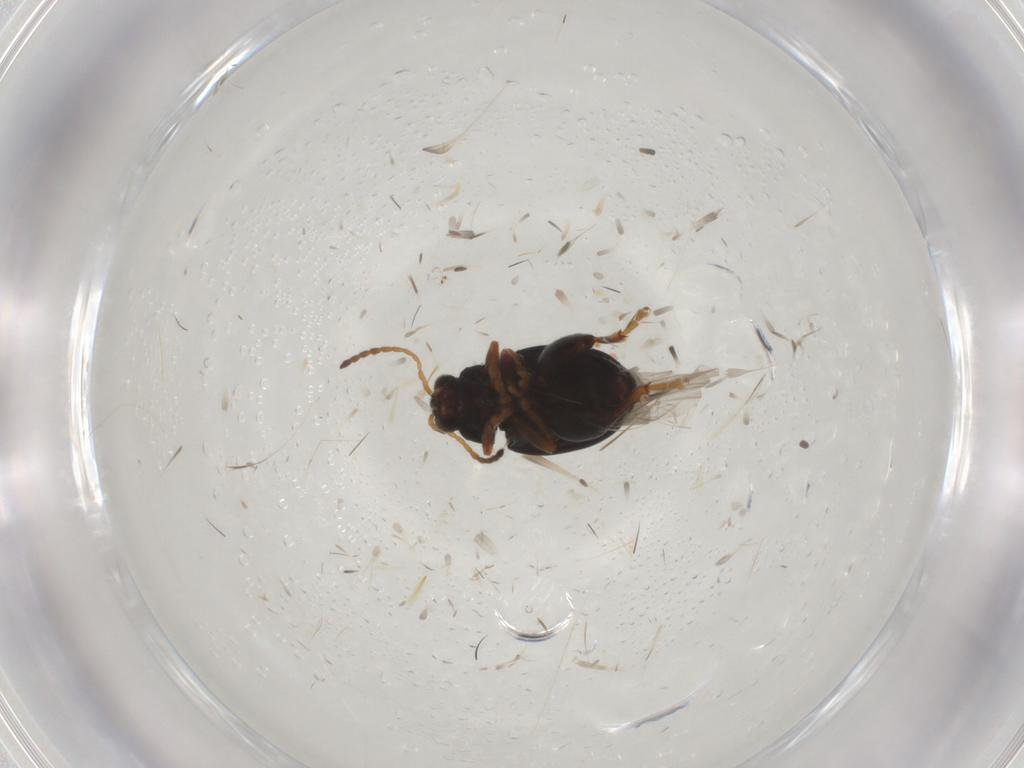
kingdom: Animalia
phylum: Arthropoda
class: Insecta
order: Coleoptera
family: Chrysomelidae
